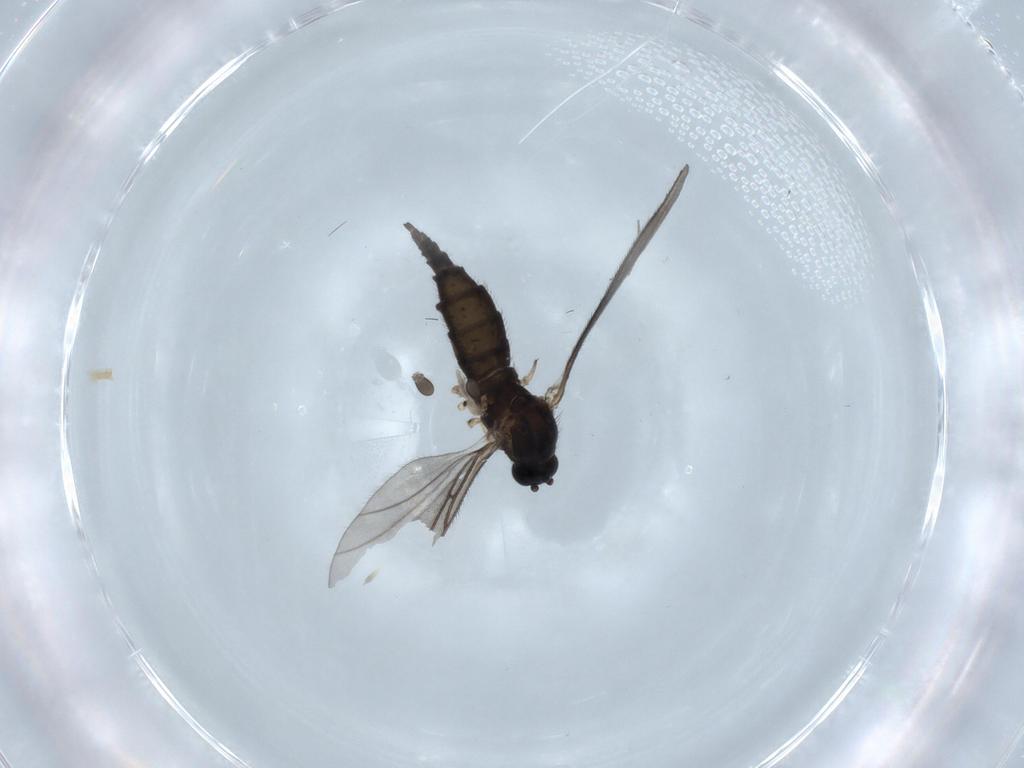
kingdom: Animalia
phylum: Arthropoda
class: Insecta
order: Diptera
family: Sciaridae
